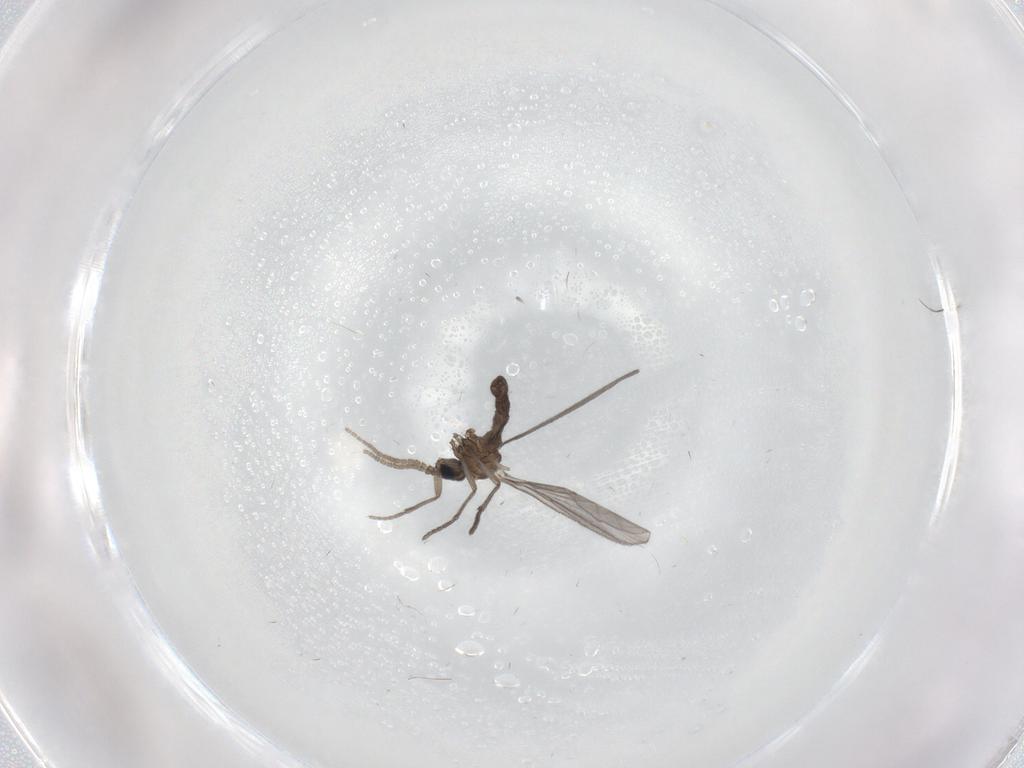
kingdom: Animalia
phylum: Arthropoda
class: Insecta
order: Diptera
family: Sciaridae
